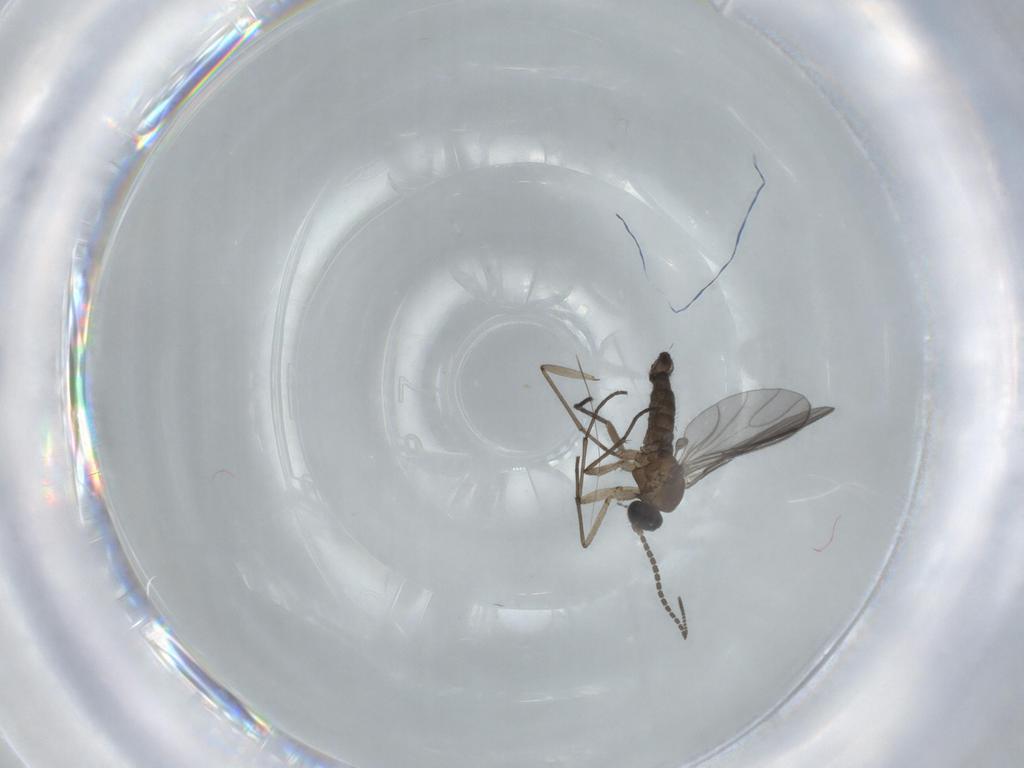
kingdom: Animalia
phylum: Arthropoda
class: Insecta
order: Diptera
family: Sciaridae
